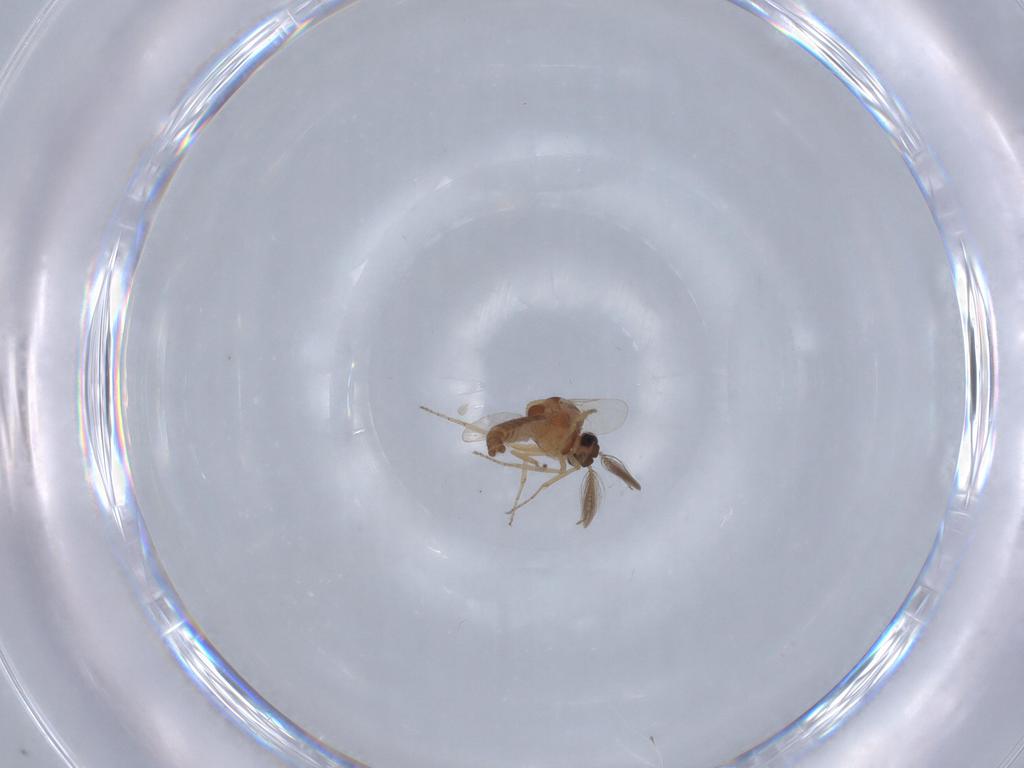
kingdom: Animalia
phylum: Arthropoda
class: Insecta
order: Diptera
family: Ceratopogonidae
